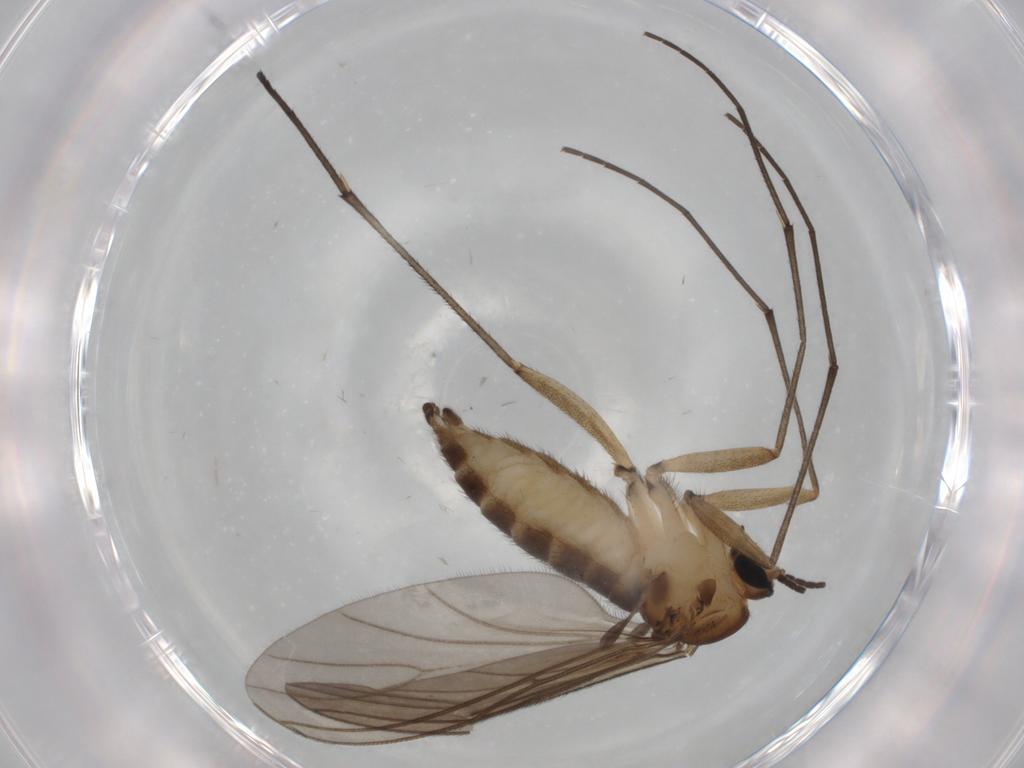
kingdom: Animalia
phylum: Arthropoda
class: Insecta
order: Diptera
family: Sciaridae
